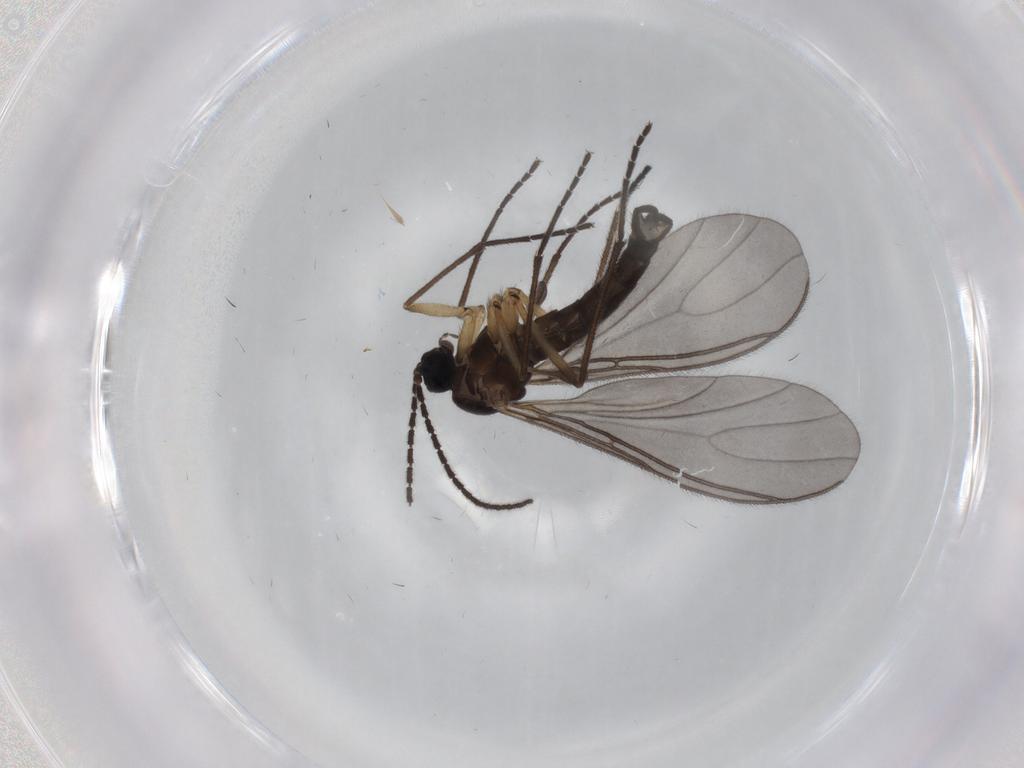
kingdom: Animalia
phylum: Arthropoda
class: Insecta
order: Diptera
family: Sciaridae
